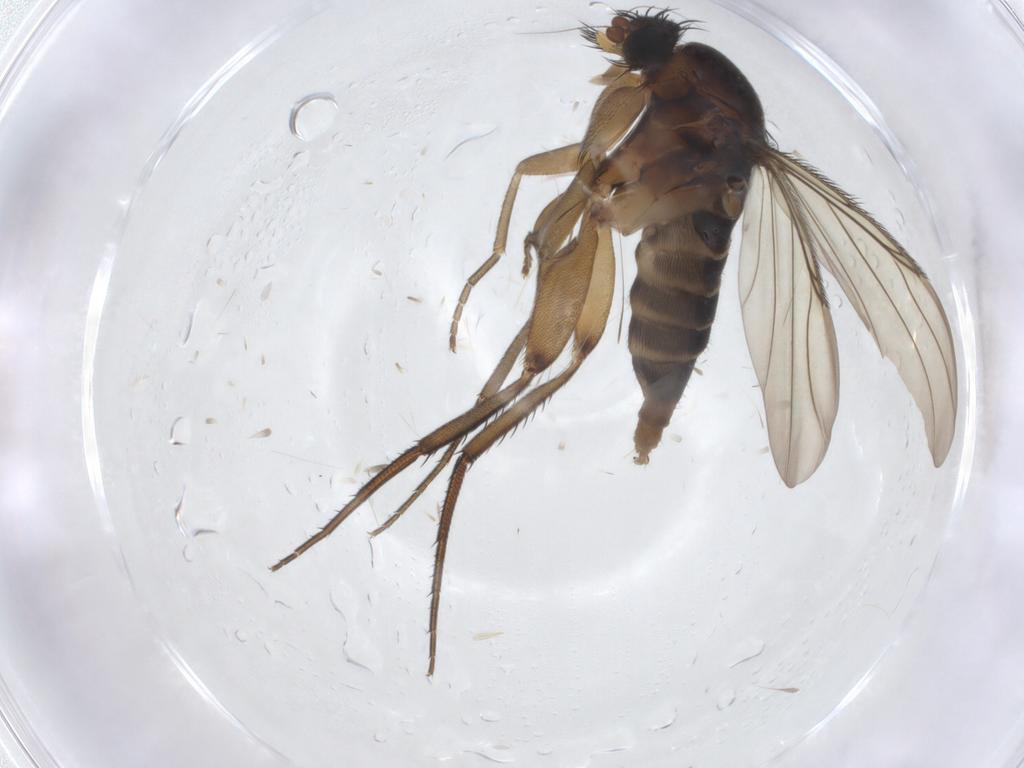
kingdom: Animalia
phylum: Arthropoda
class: Insecta
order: Diptera
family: Phoridae
